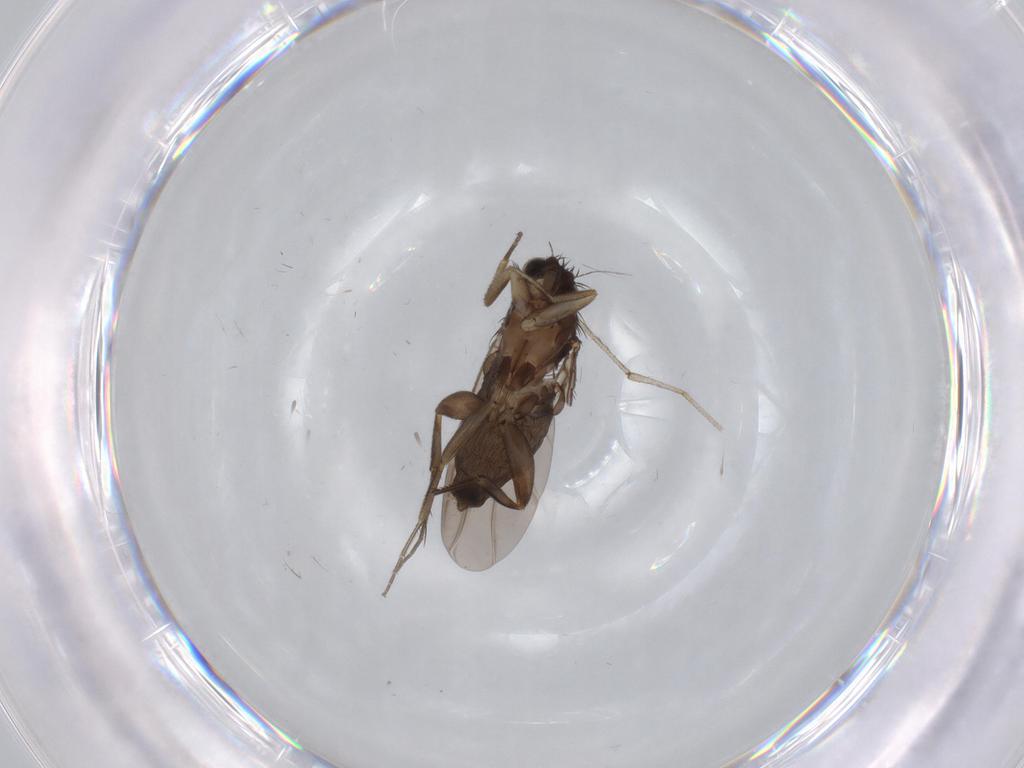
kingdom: Animalia
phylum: Arthropoda
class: Insecta
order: Diptera
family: Phoridae
